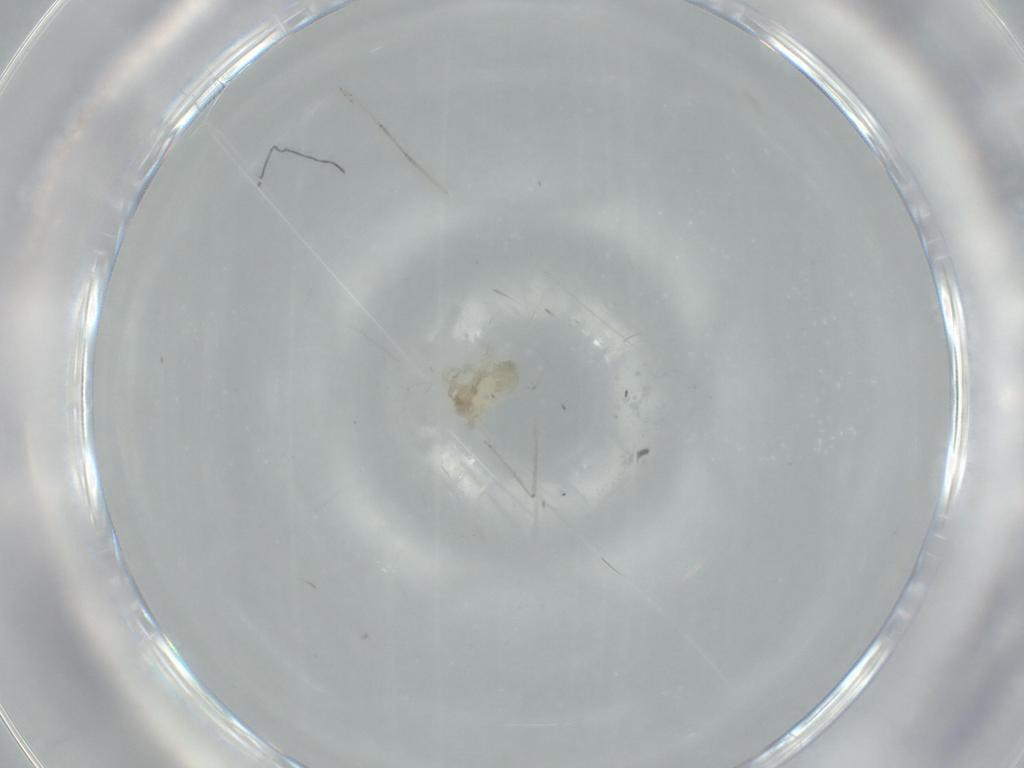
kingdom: Animalia
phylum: Arthropoda
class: Arachnida
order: Araneae
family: Oonopidae
